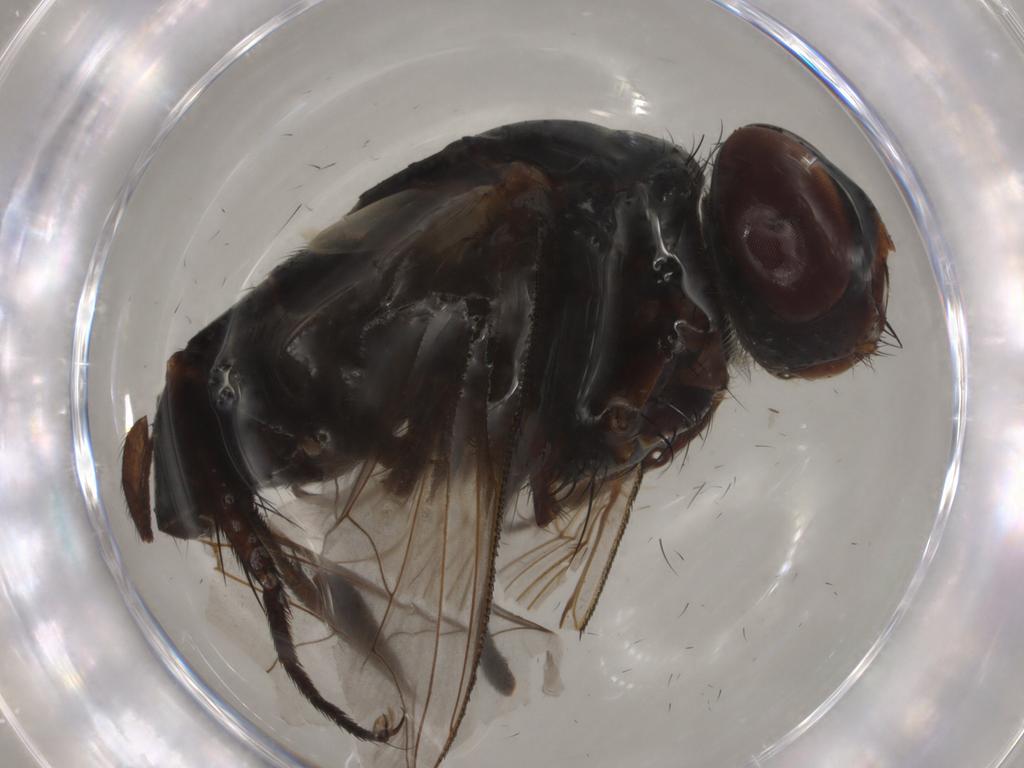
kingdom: Animalia
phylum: Arthropoda
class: Insecta
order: Diptera
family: Sarcophagidae
